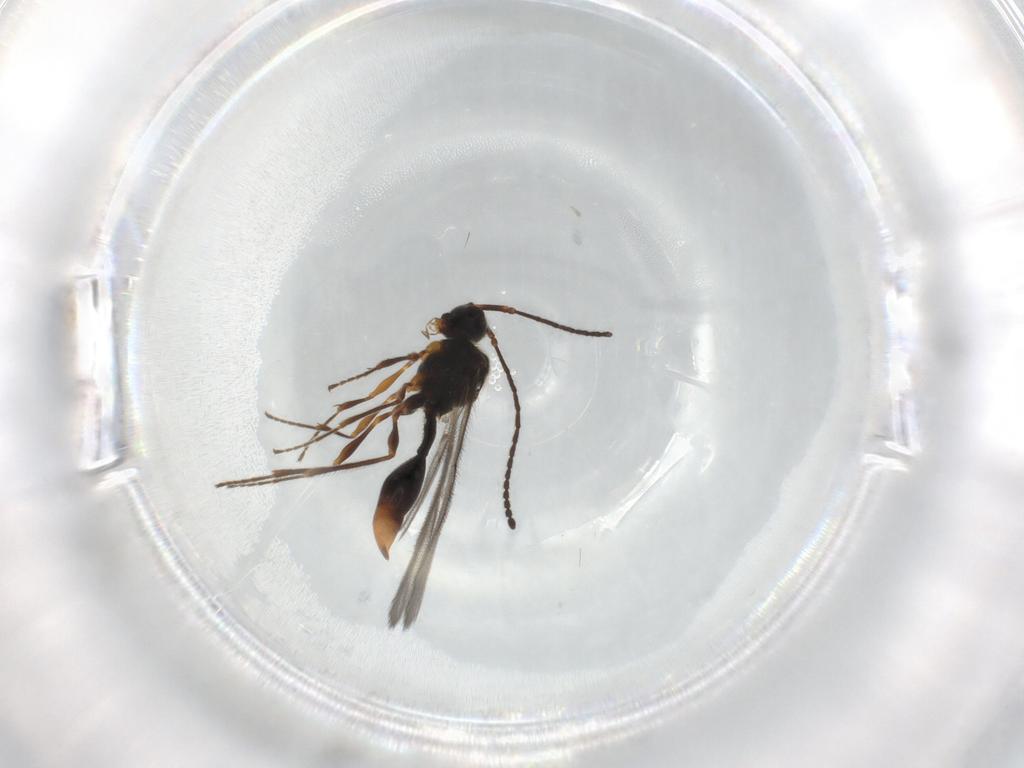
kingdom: Animalia
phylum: Arthropoda
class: Insecta
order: Hymenoptera
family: Diapriidae
